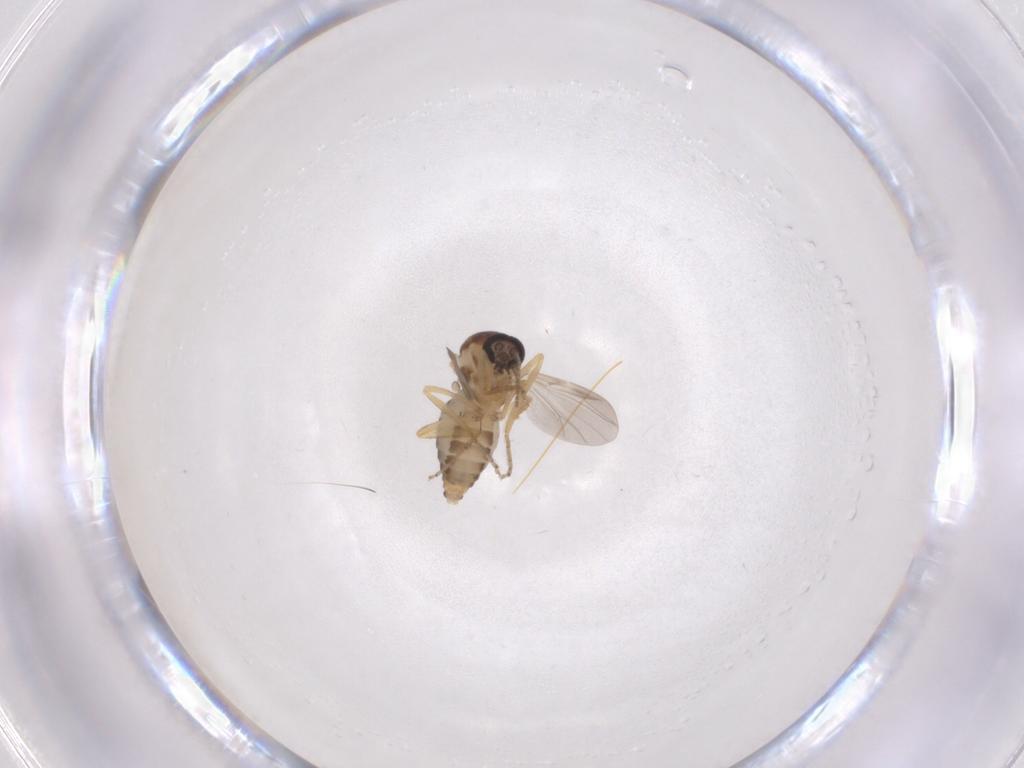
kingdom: Animalia
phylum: Arthropoda
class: Insecta
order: Diptera
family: Ceratopogonidae
